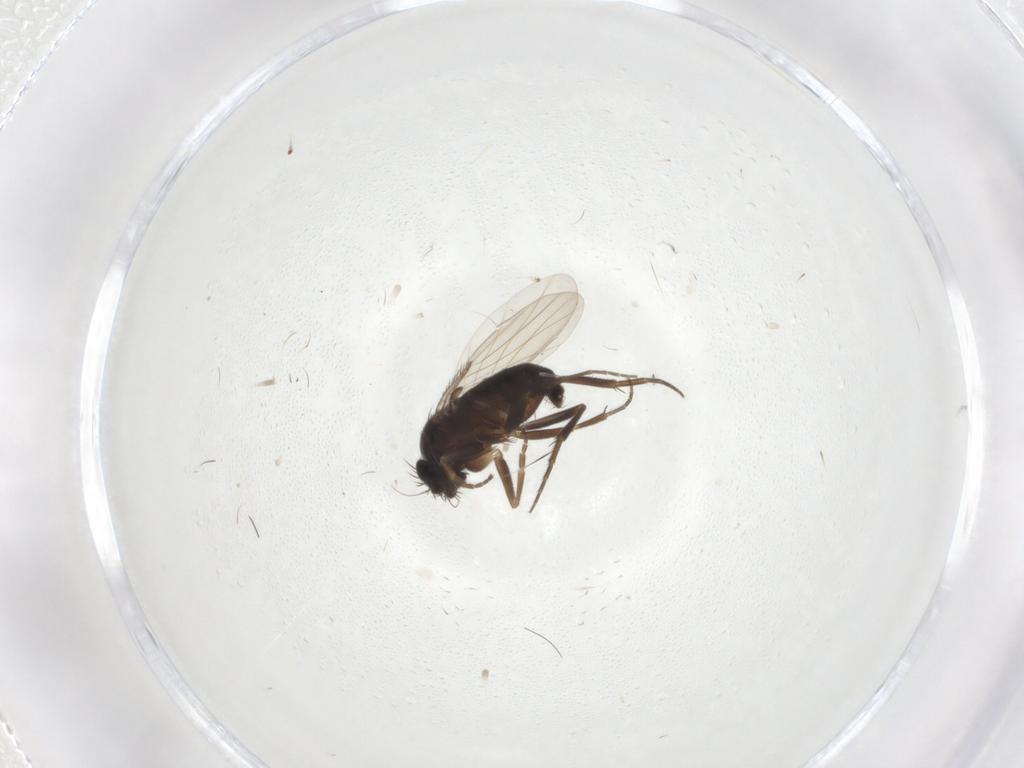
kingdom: Animalia
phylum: Arthropoda
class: Insecta
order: Diptera
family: Phoridae
